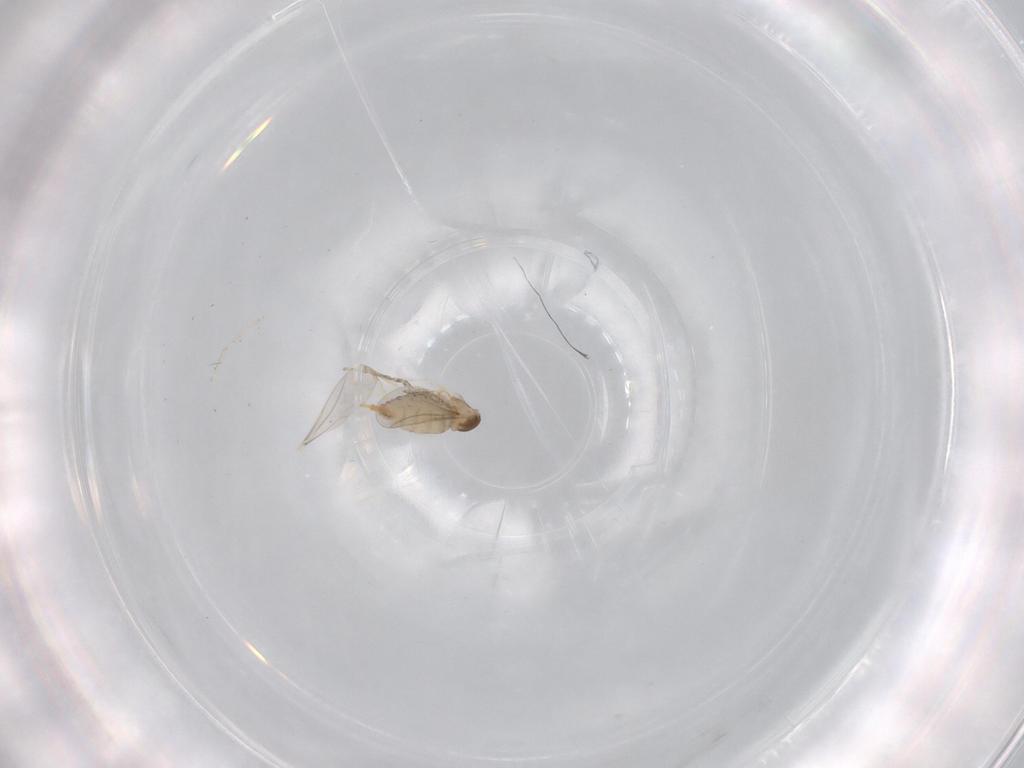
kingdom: Animalia
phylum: Arthropoda
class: Insecta
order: Diptera
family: Cecidomyiidae
